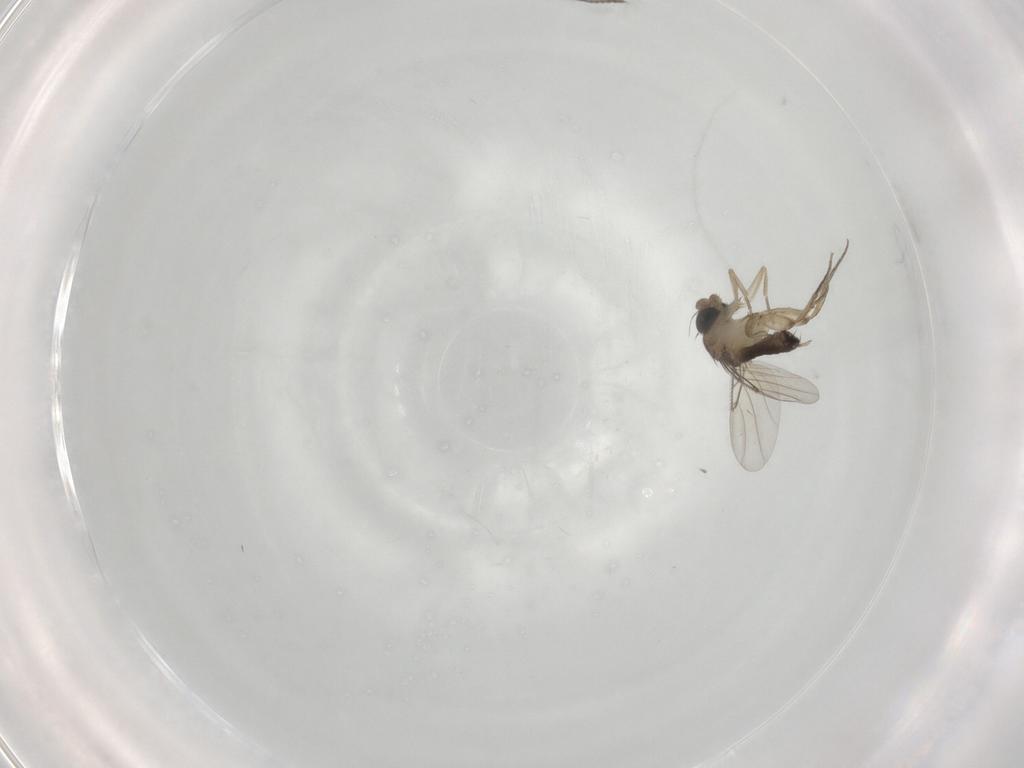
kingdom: Animalia
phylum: Arthropoda
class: Insecta
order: Diptera
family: Phoridae
